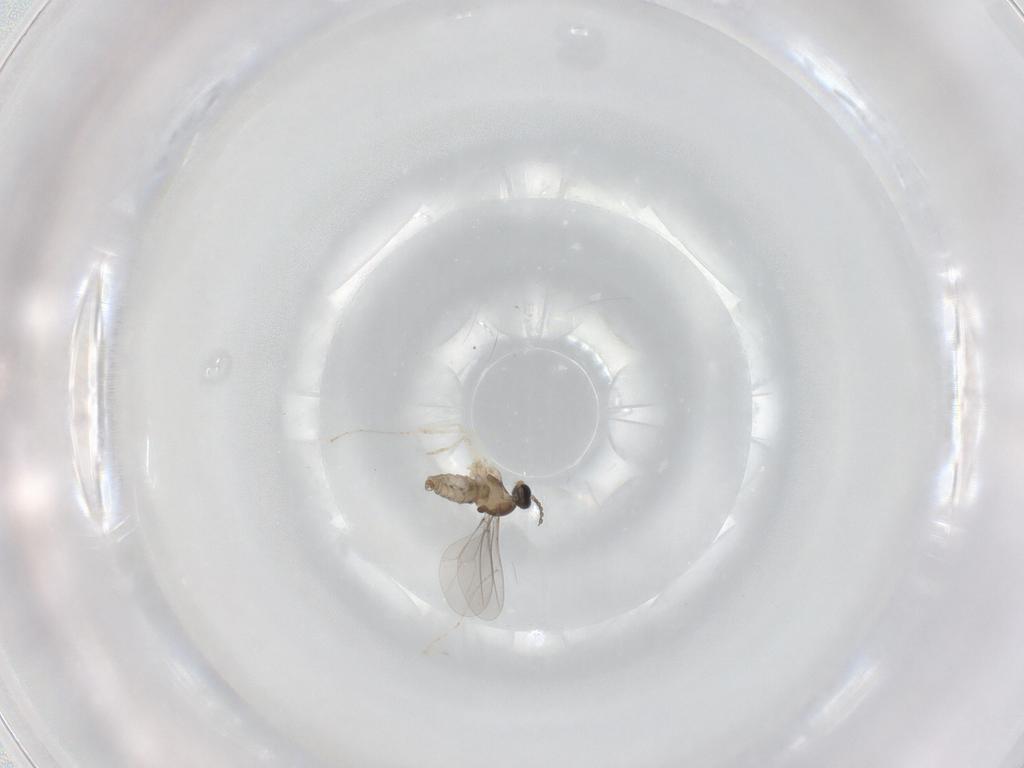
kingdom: Animalia
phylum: Arthropoda
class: Insecta
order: Diptera
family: Cecidomyiidae
